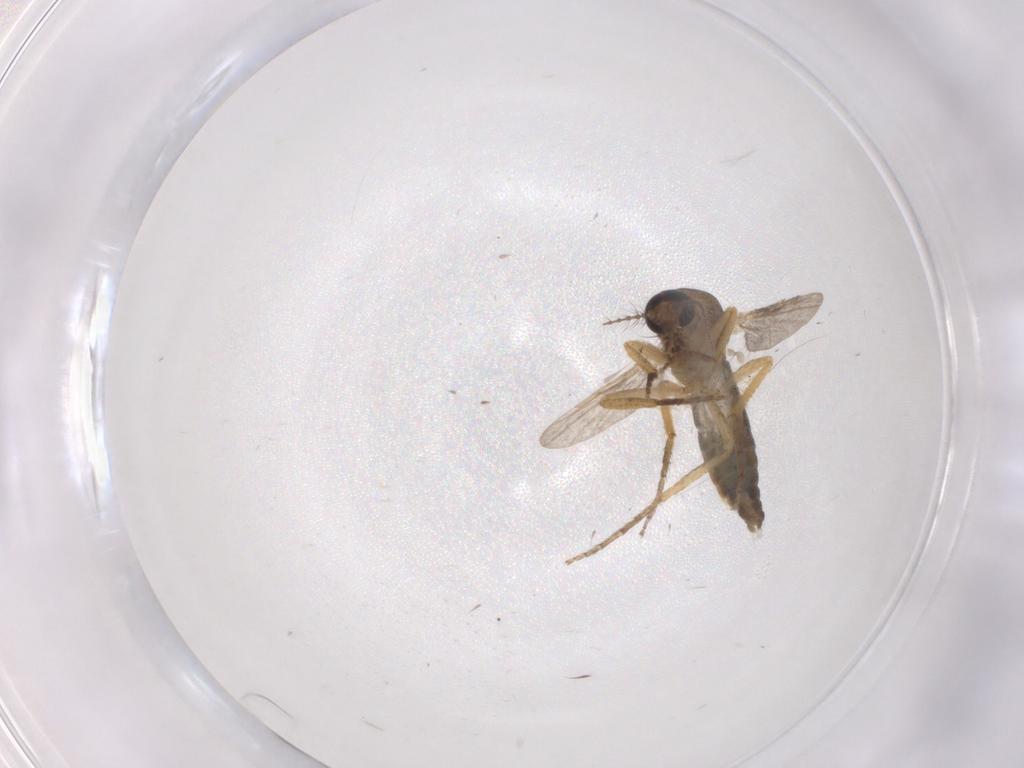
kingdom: Animalia
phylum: Arthropoda
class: Insecta
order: Diptera
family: Ceratopogonidae
